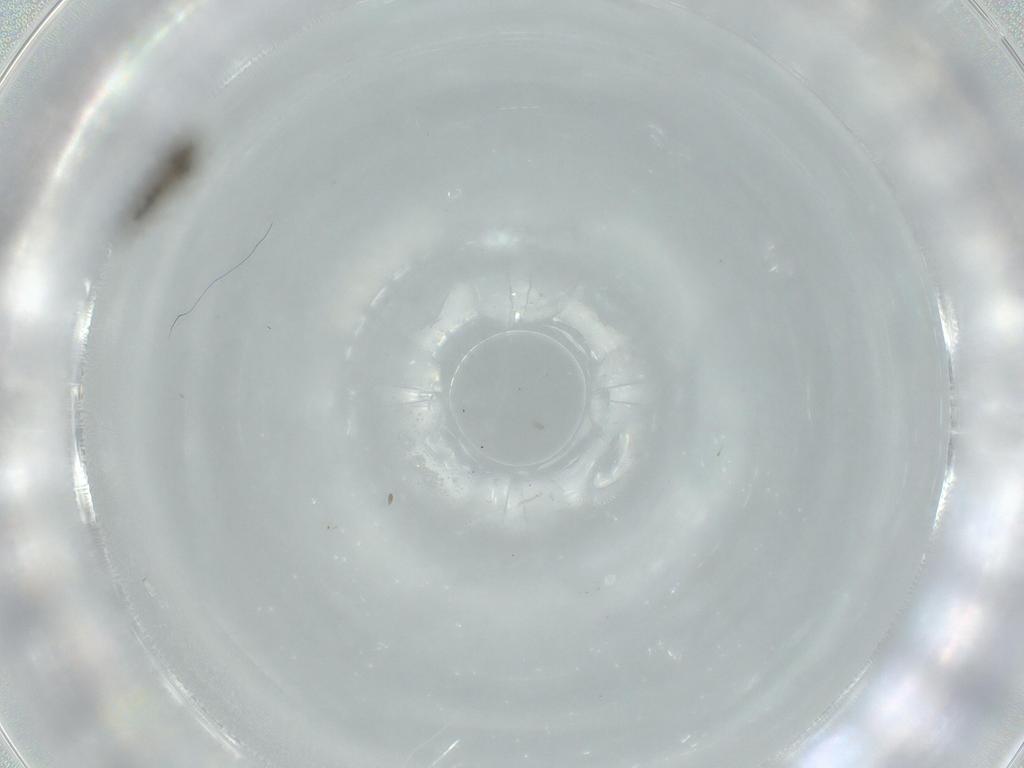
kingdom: Animalia
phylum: Arthropoda
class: Insecta
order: Diptera
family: Chironomidae
